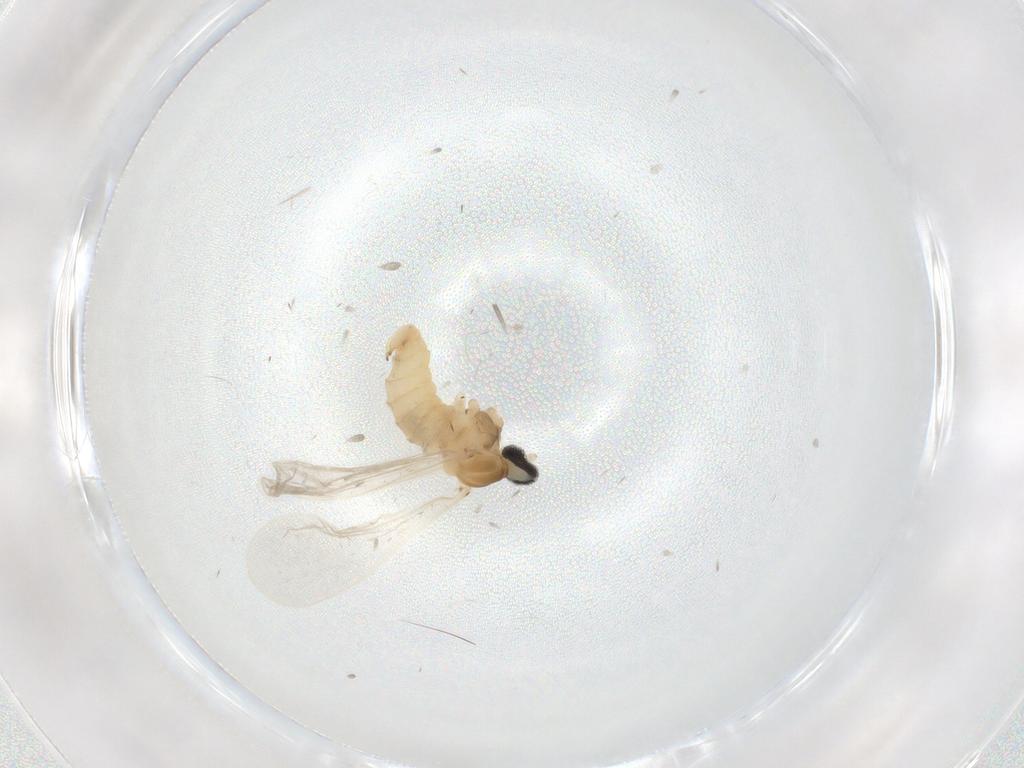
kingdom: Animalia
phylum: Arthropoda
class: Insecta
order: Diptera
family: Cecidomyiidae
